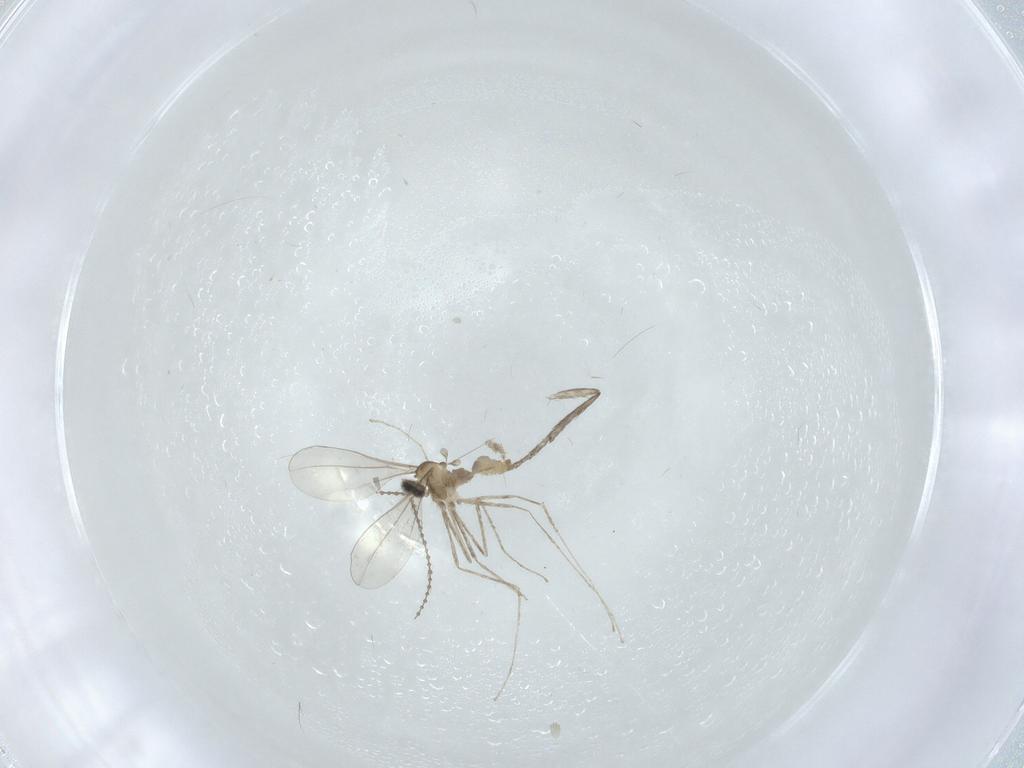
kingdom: Animalia
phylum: Arthropoda
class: Insecta
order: Diptera
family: Cecidomyiidae
